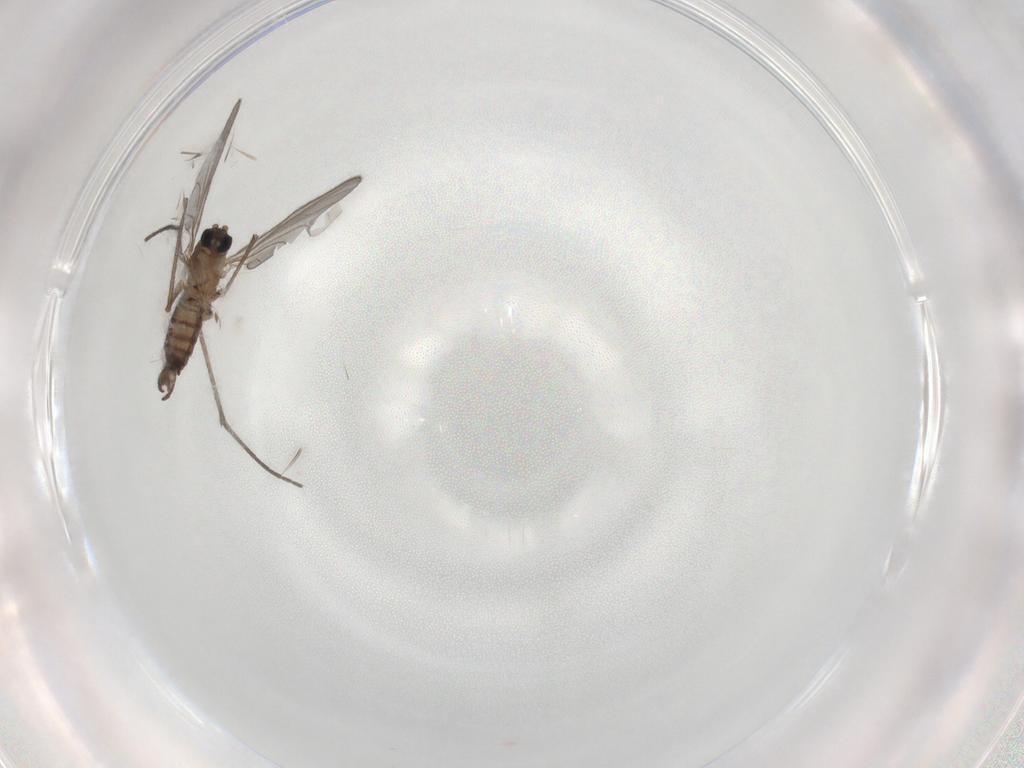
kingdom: Animalia
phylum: Arthropoda
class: Insecta
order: Diptera
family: Sciaridae
